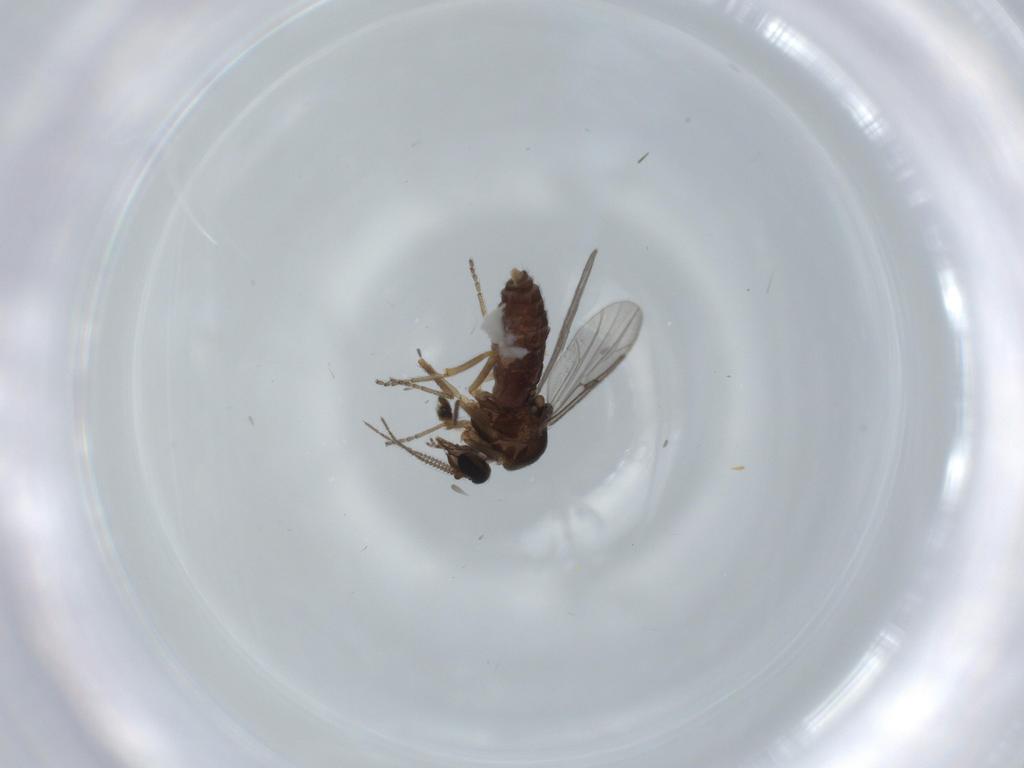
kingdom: Animalia
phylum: Arthropoda
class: Insecta
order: Diptera
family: Ceratopogonidae
